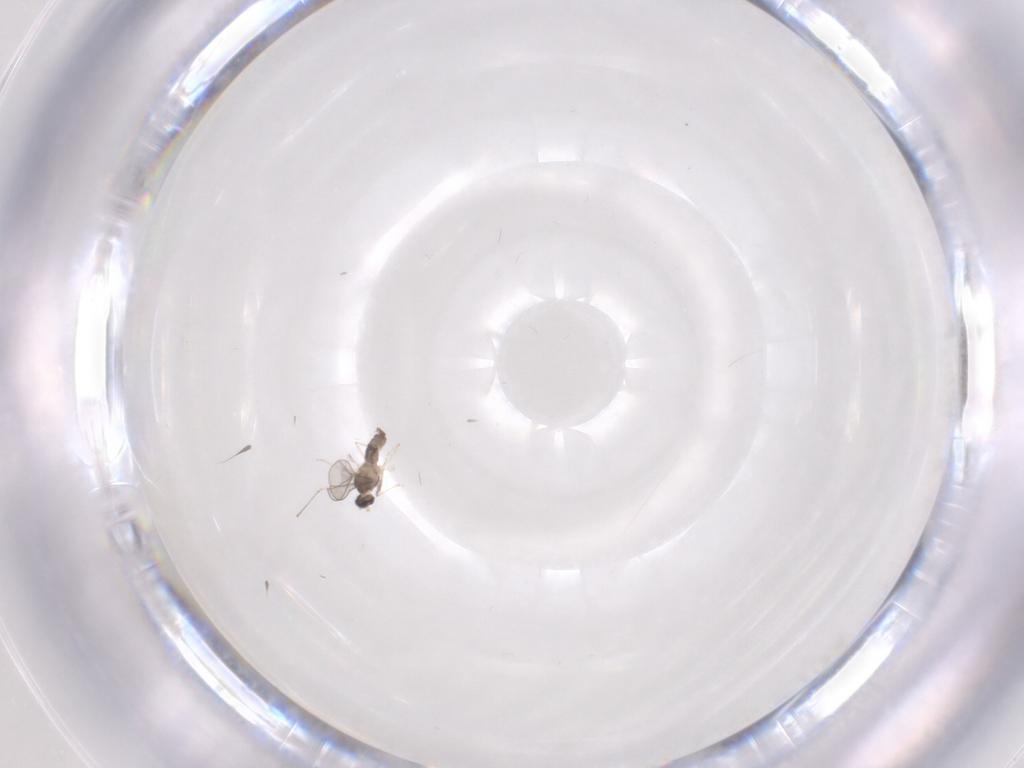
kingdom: Animalia
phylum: Arthropoda
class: Insecta
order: Diptera
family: Cecidomyiidae
